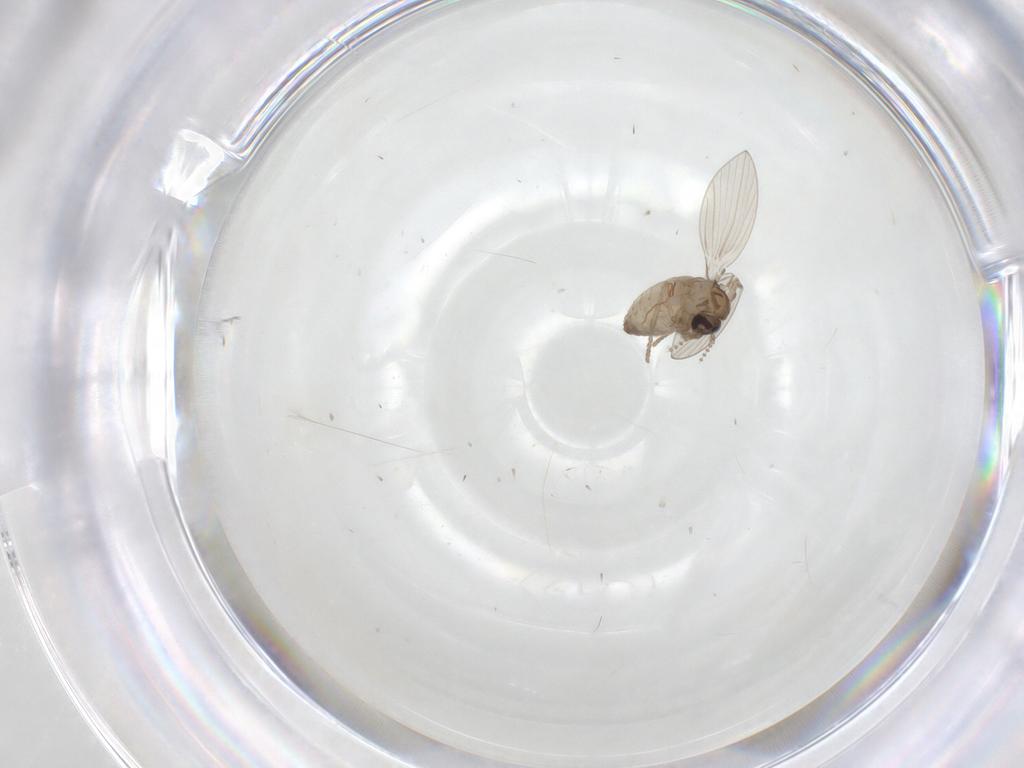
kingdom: Animalia
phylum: Arthropoda
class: Insecta
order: Diptera
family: Psychodidae
